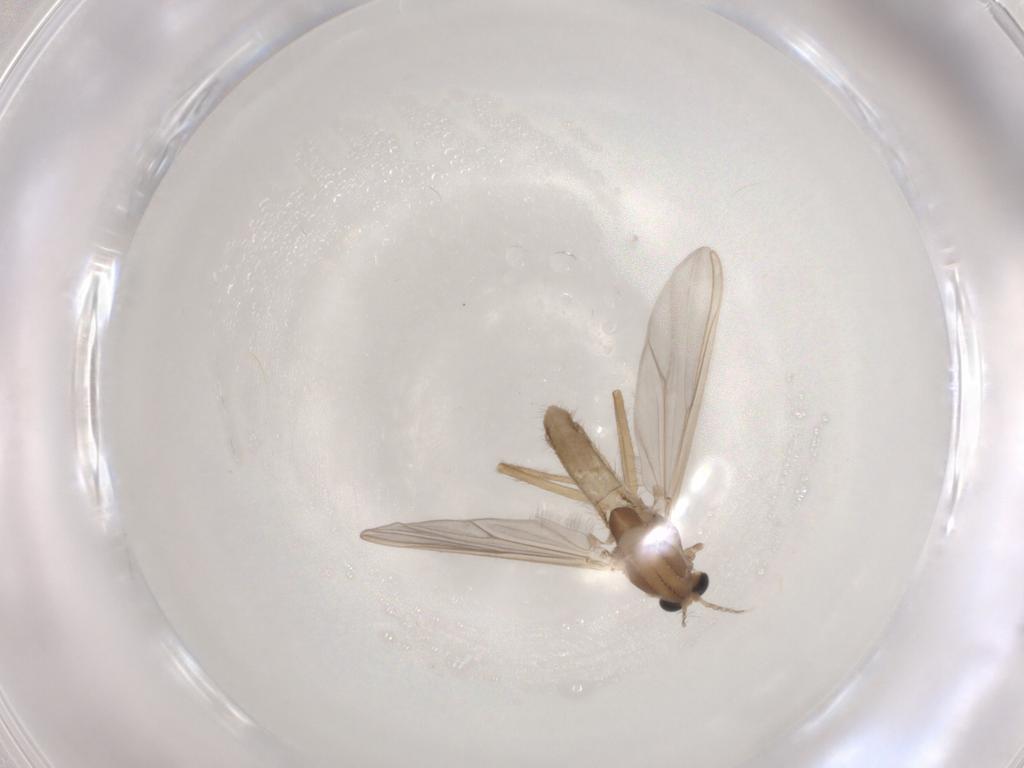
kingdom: Animalia
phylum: Arthropoda
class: Insecta
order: Diptera
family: Chironomidae
